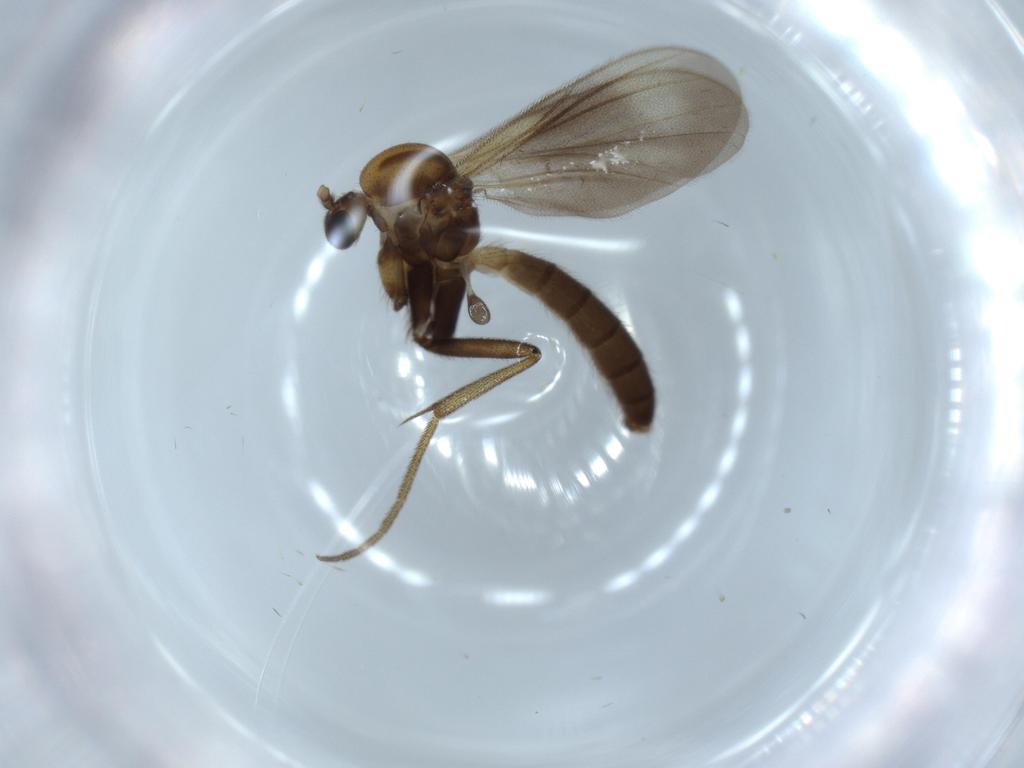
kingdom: Animalia
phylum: Arthropoda
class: Insecta
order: Diptera
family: Mycetophilidae
